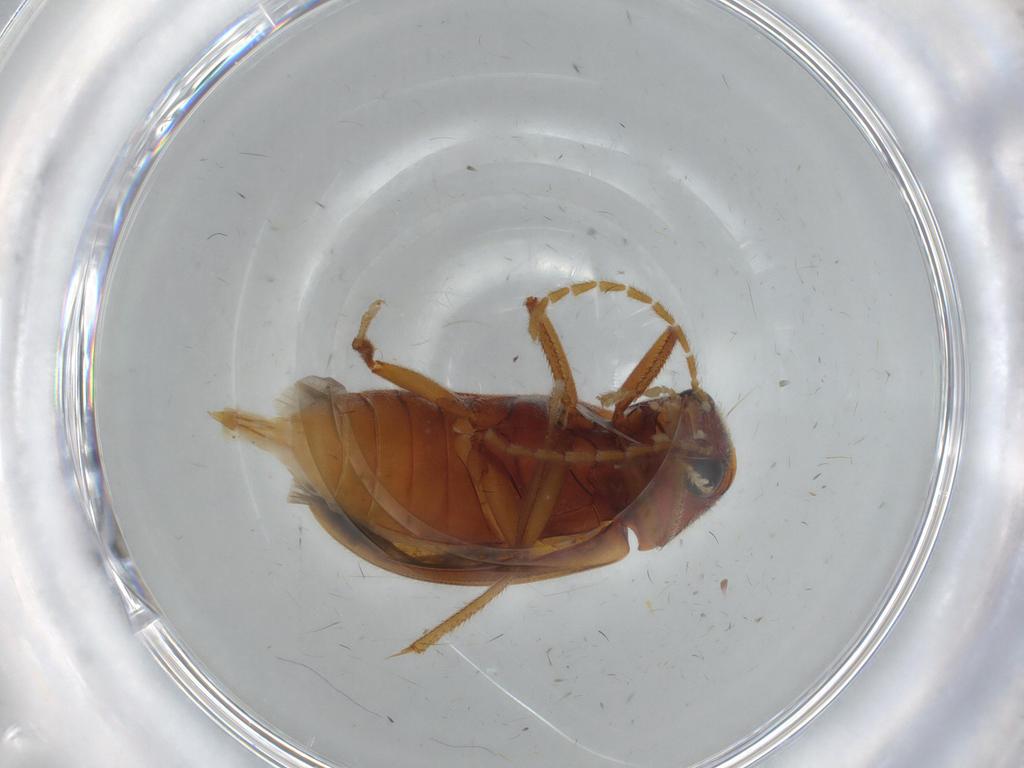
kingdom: Animalia
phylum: Arthropoda
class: Insecta
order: Coleoptera
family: Ptilodactylidae
